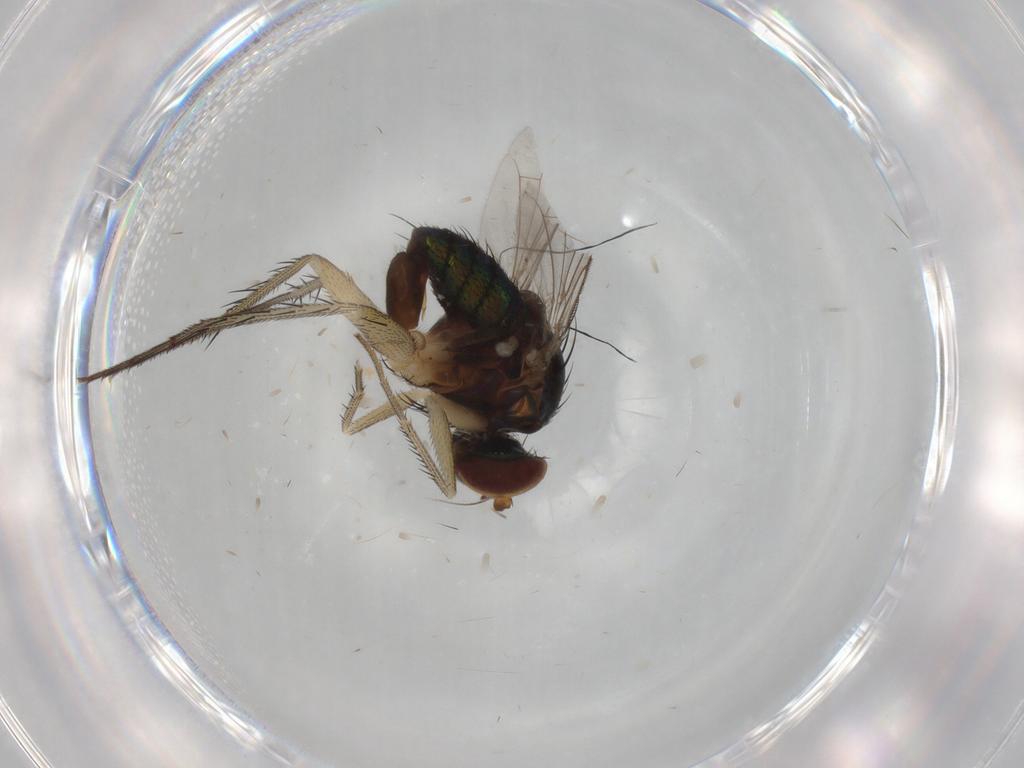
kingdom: Animalia
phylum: Arthropoda
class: Insecta
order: Diptera
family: Dolichopodidae
